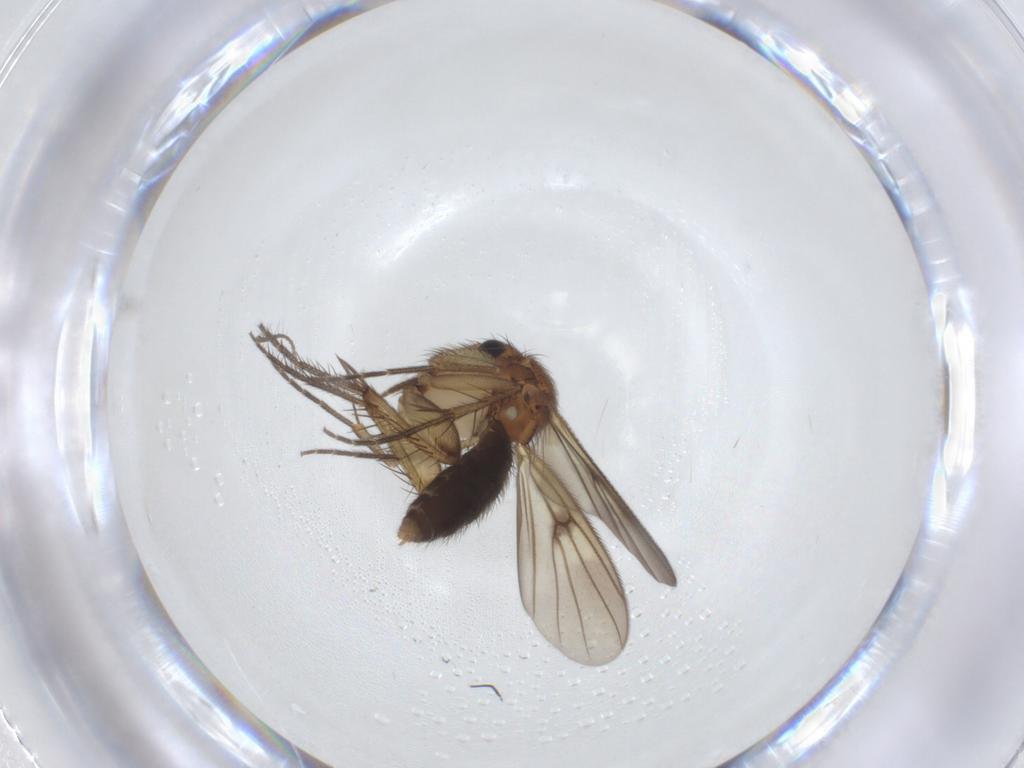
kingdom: Animalia
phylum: Arthropoda
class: Insecta
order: Diptera
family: Limoniidae
